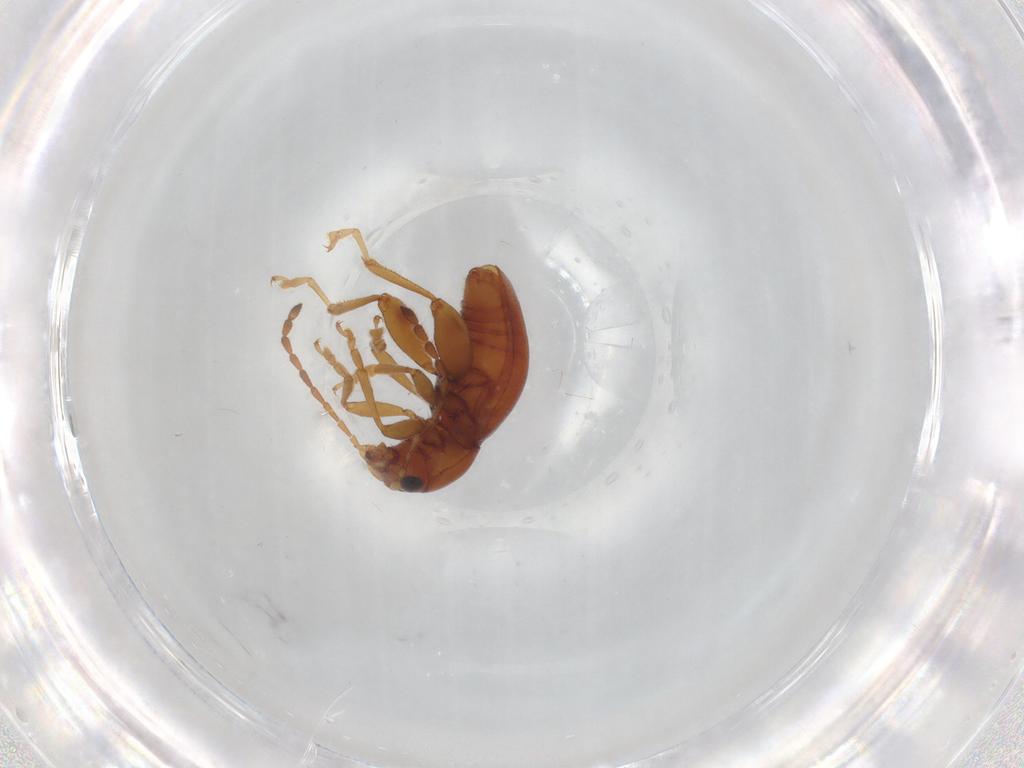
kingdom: Animalia
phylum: Arthropoda
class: Insecta
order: Coleoptera
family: Chrysomelidae
